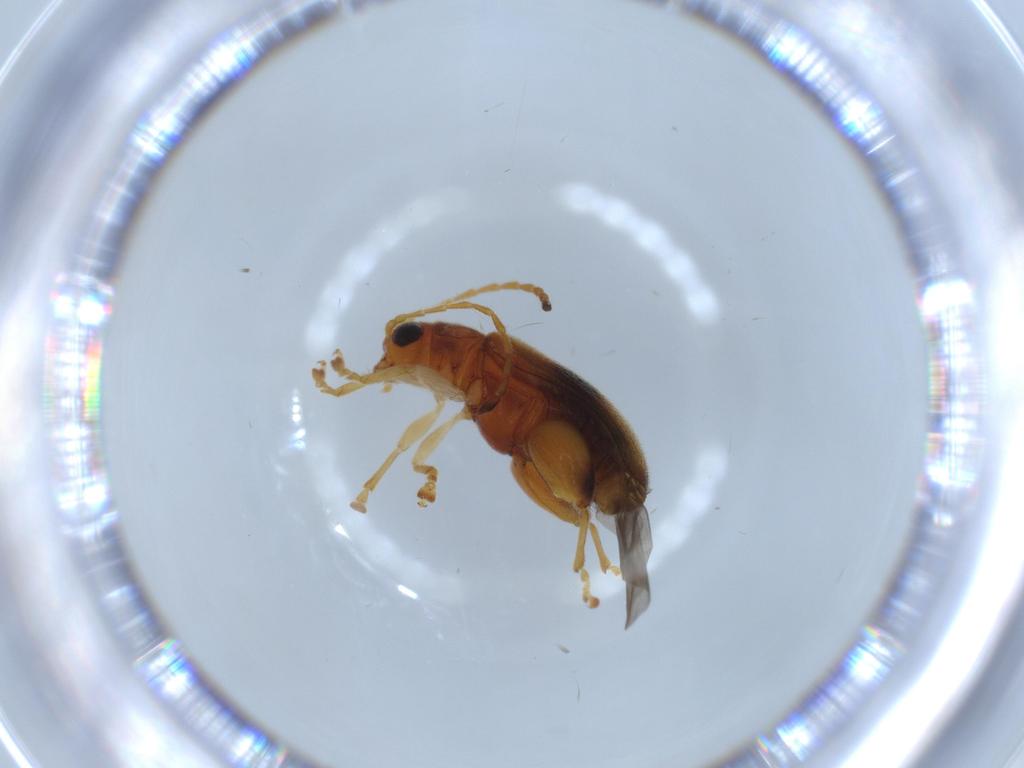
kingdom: Animalia
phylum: Arthropoda
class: Insecta
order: Coleoptera
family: Chrysomelidae
